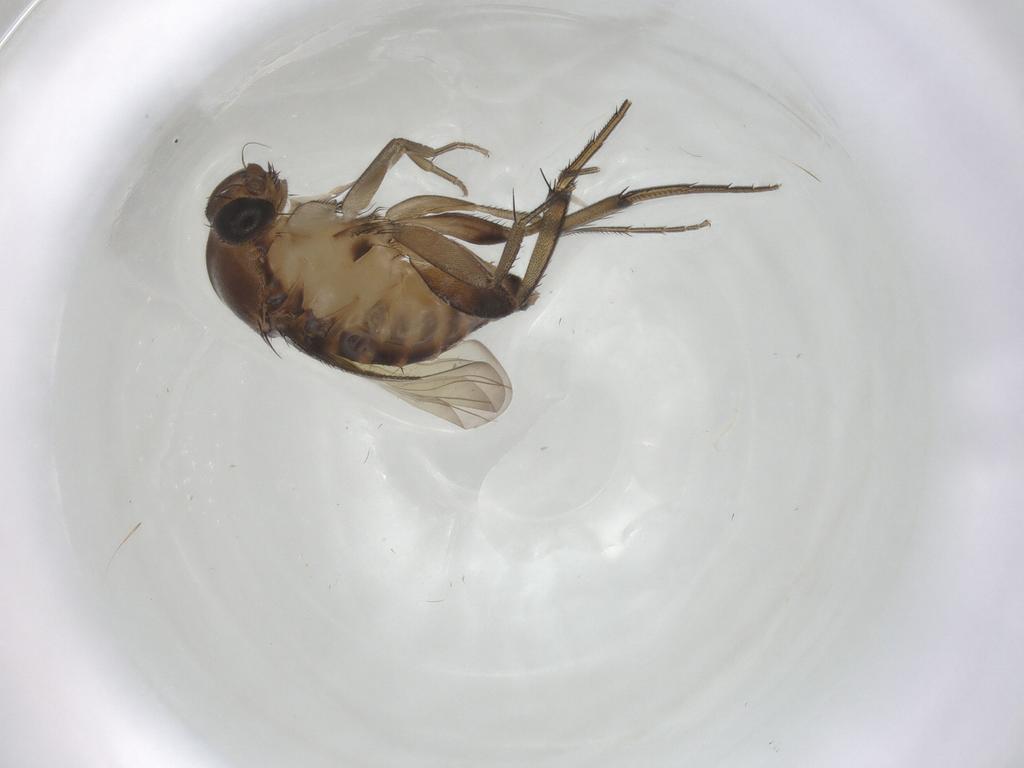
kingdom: Animalia
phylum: Arthropoda
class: Insecta
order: Diptera
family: Phoridae
